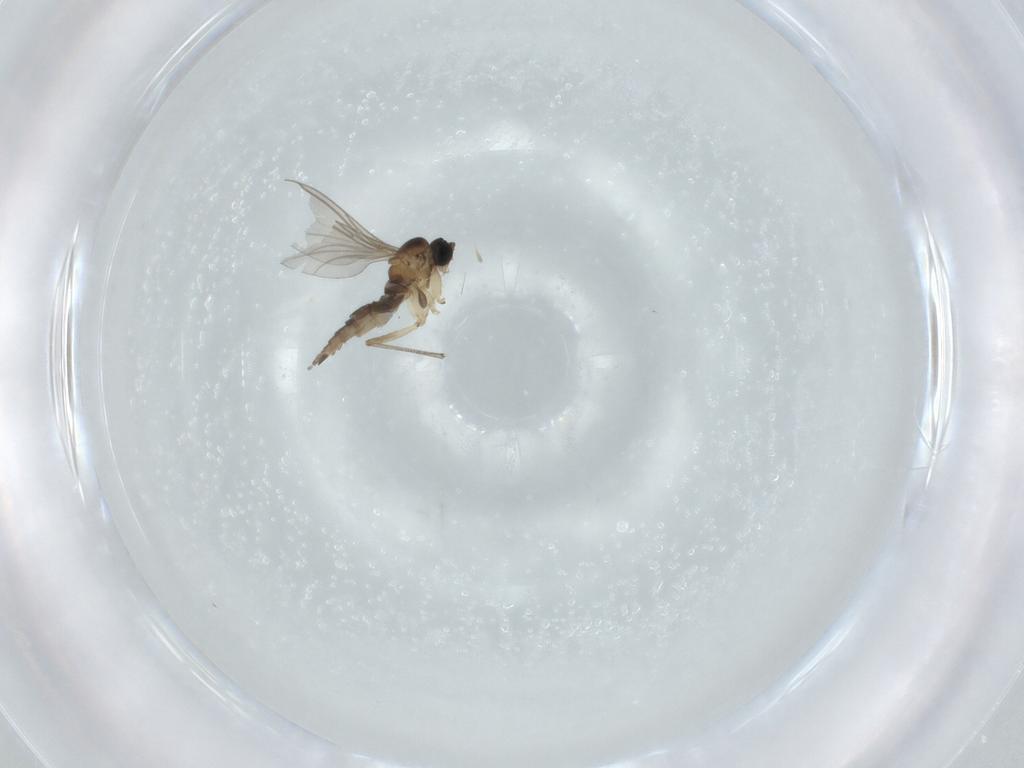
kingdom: Animalia
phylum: Arthropoda
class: Insecta
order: Diptera
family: Sciaridae
